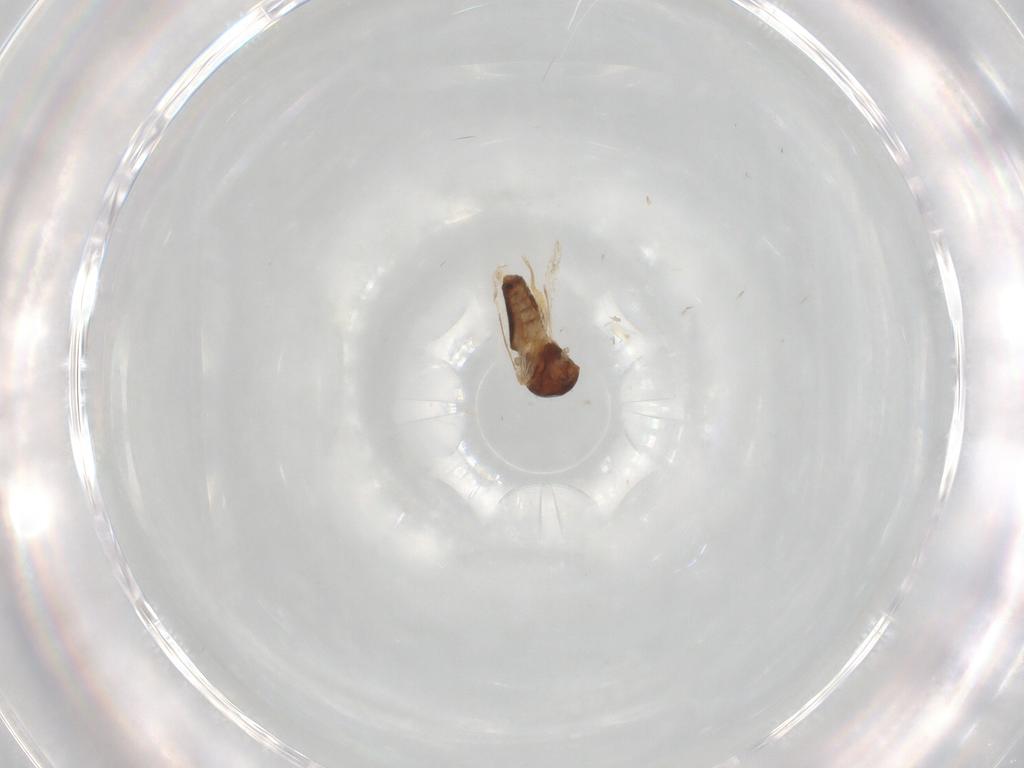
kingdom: Animalia
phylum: Arthropoda
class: Insecta
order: Diptera
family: Ceratopogonidae
